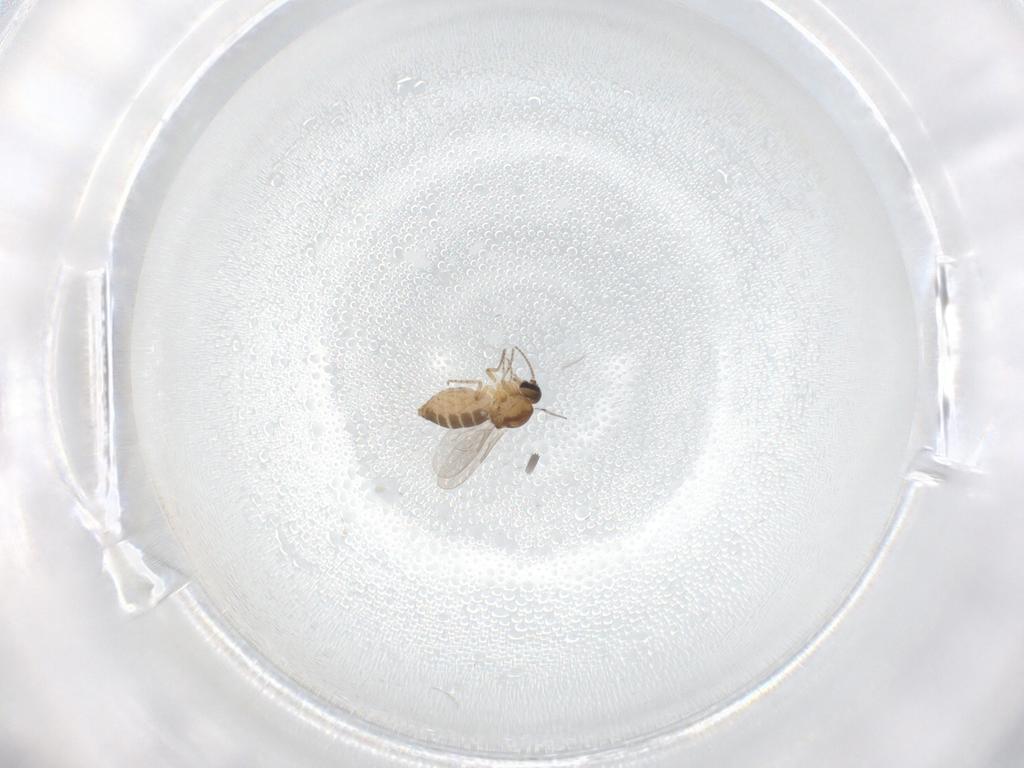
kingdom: Animalia
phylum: Arthropoda
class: Insecta
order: Diptera
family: Ceratopogonidae
